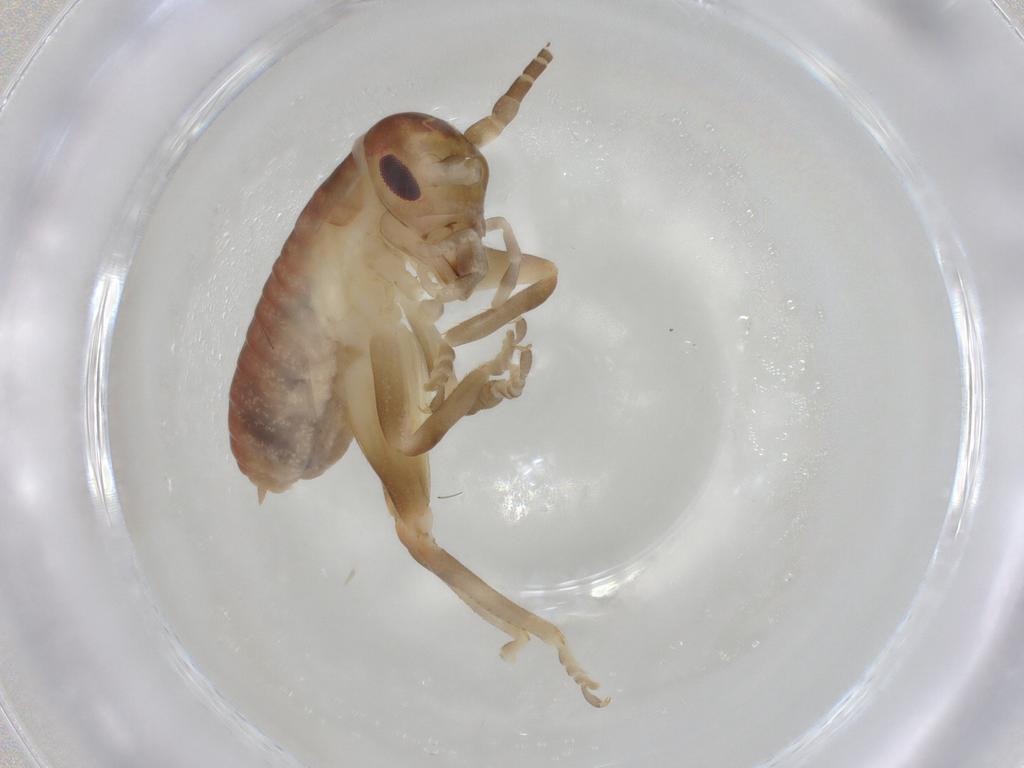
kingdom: Animalia
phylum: Arthropoda
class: Insecta
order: Orthoptera
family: Gryllacrididae
